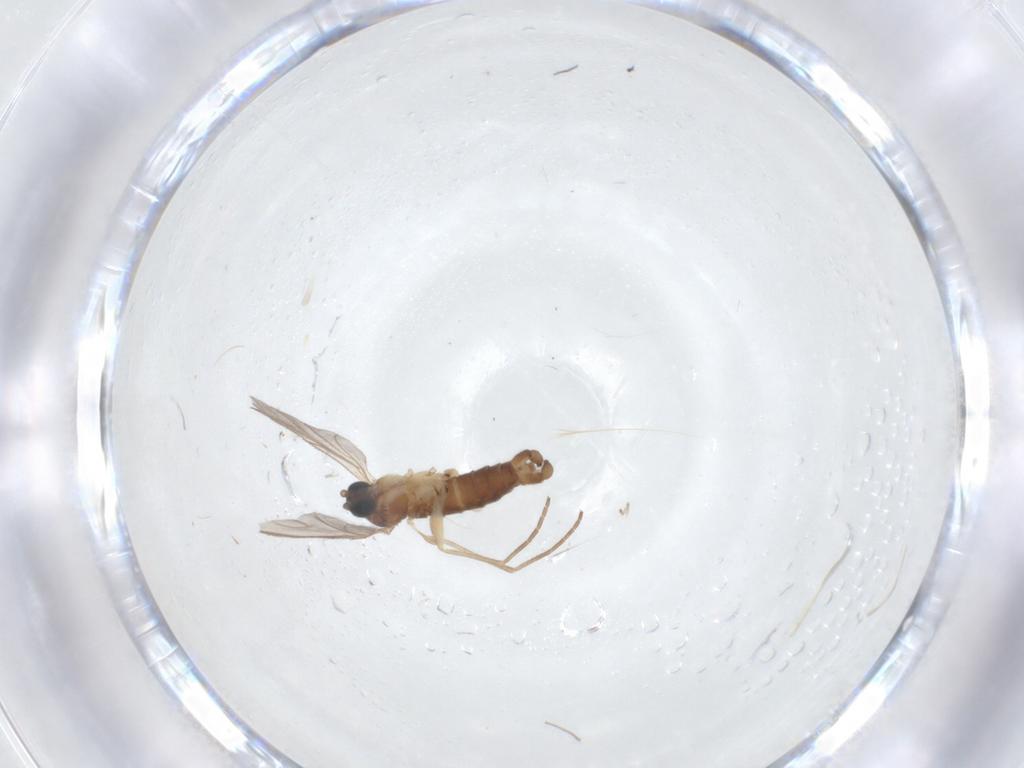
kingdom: Animalia
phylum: Arthropoda
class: Insecta
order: Diptera
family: Sciaridae
